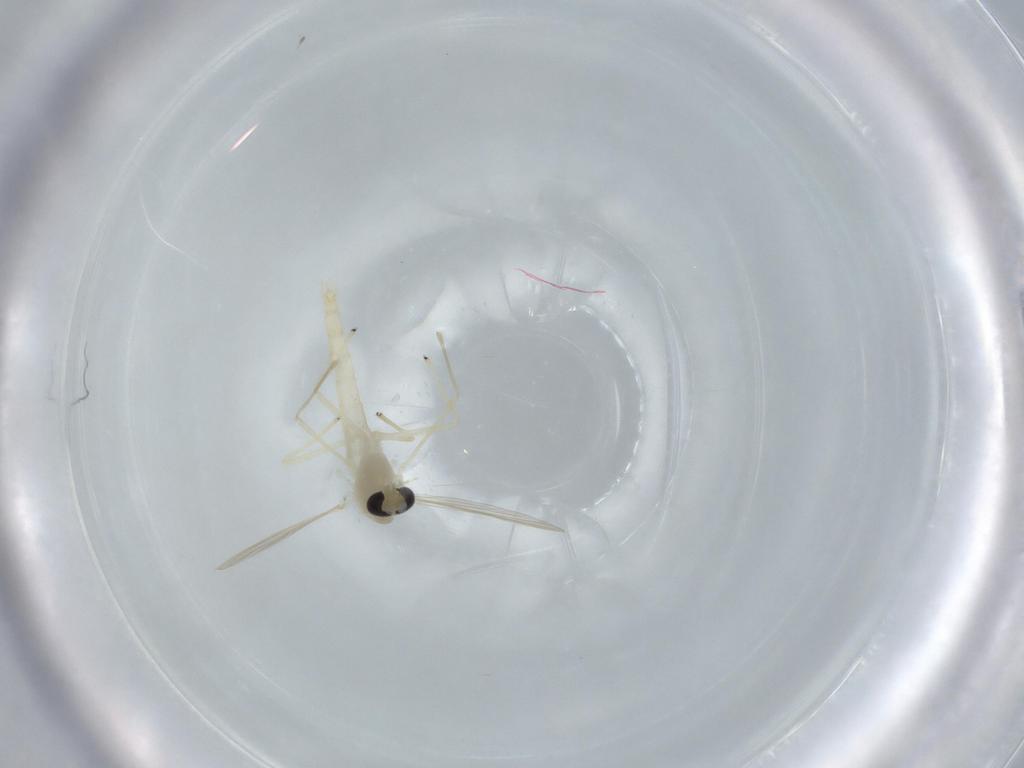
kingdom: Animalia
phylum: Arthropoda
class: Insecta
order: Diptera
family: Chironomidae
